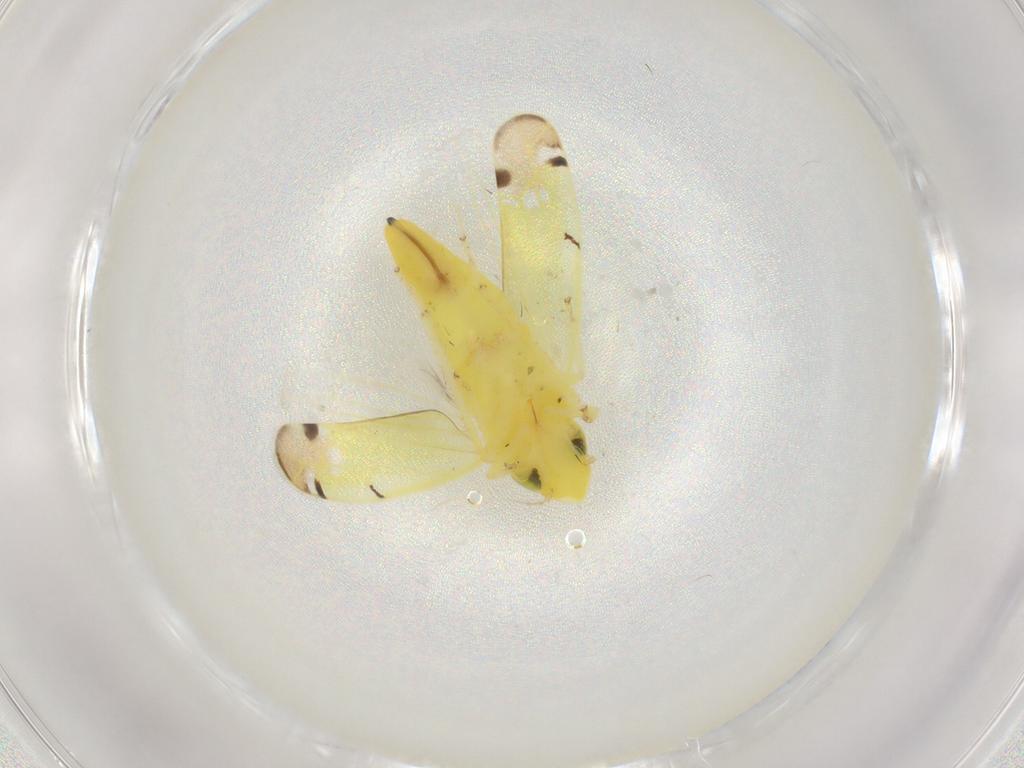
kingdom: Animalia
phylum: Arthropoda
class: Insecta
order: Hemiptera
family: Cicadellidae
